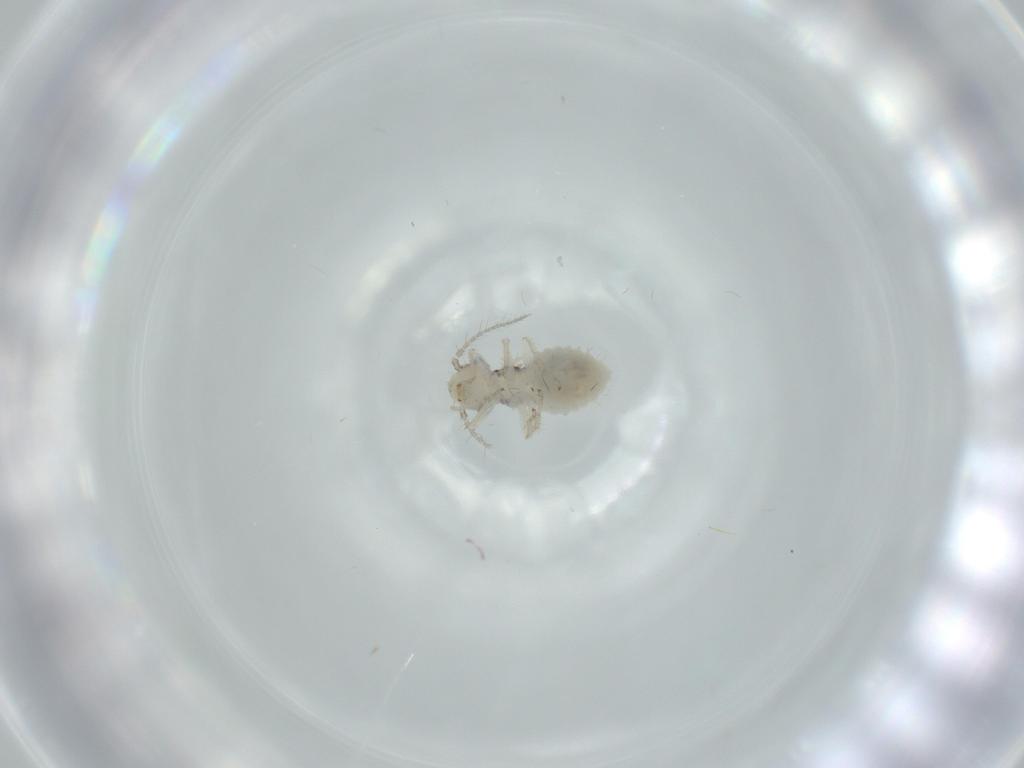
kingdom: Animalia
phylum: Arthropoda
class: Insecta
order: Psocodea
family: Pseudocaeciliidae
